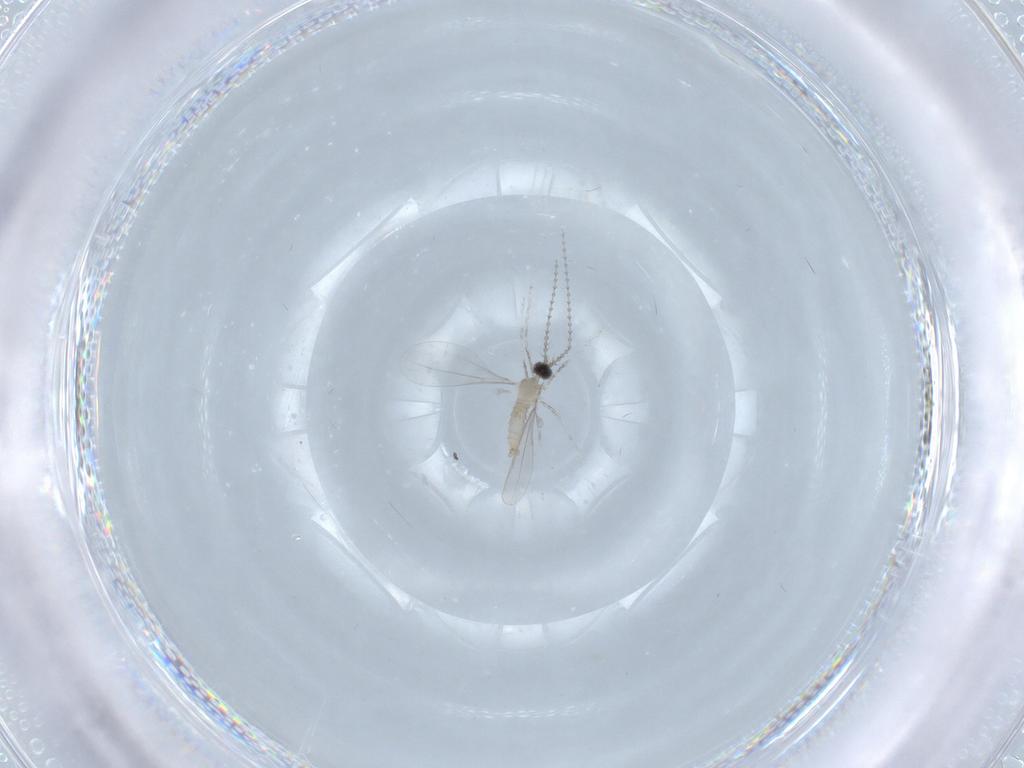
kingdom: Animalia
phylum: Arthropoda
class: Insecta
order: Diptera
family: Cecidomyiidae
